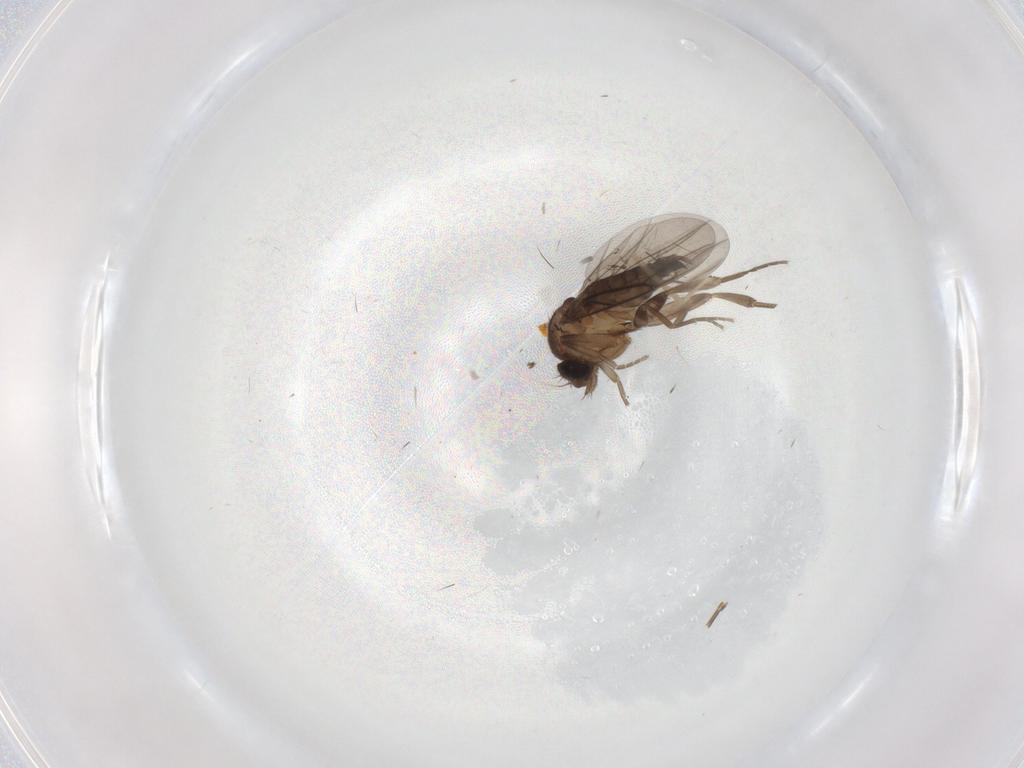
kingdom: Animalia
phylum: Arthropoda
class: Insecta
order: Diptera
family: Phoridae
